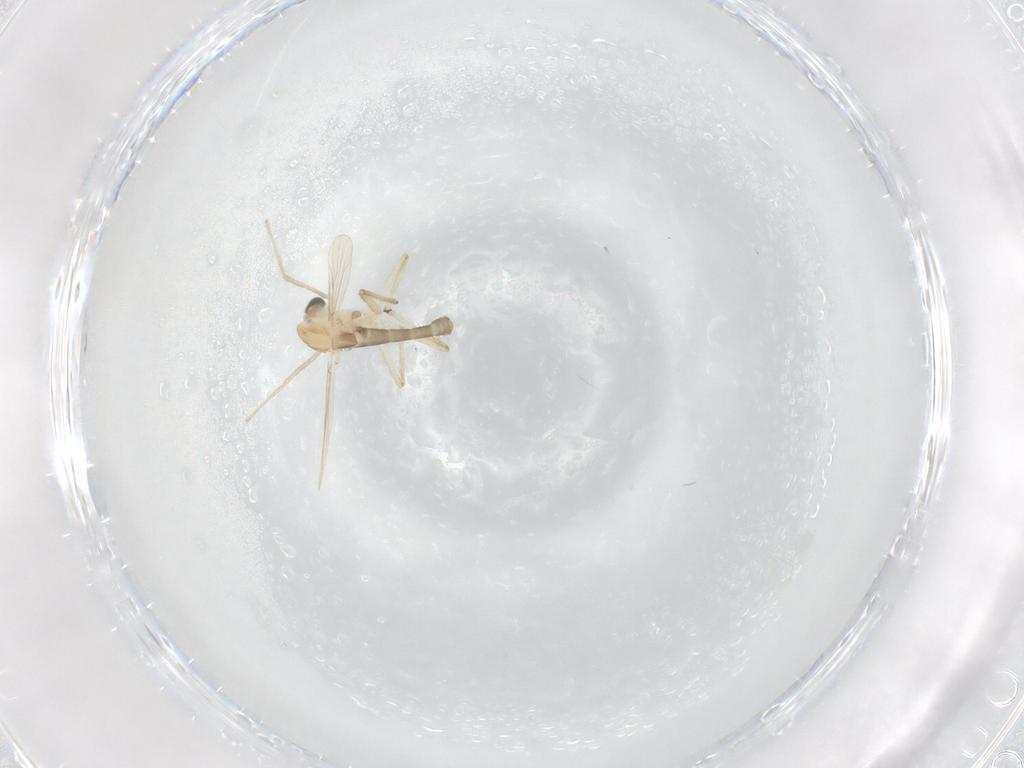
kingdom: Animalia
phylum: Arthropoda
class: Insecta
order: Diptera
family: Chironomidae
